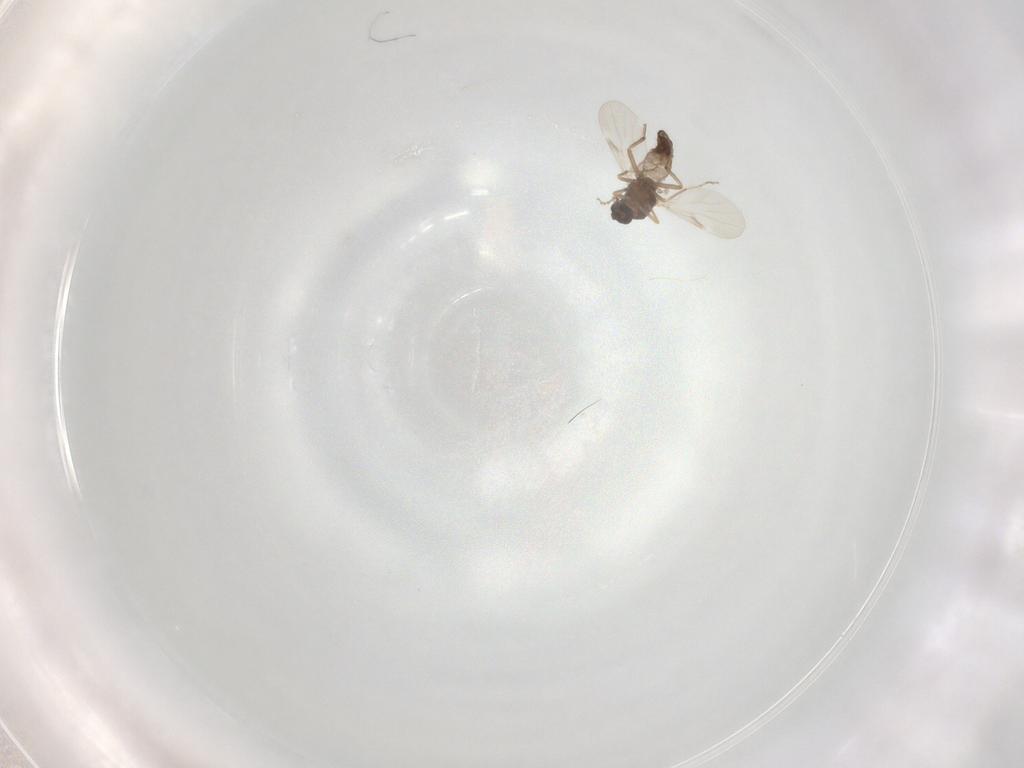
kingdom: Animalia
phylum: Arthropoda
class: Insecta
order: Diptera
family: Ceratopogonidae
